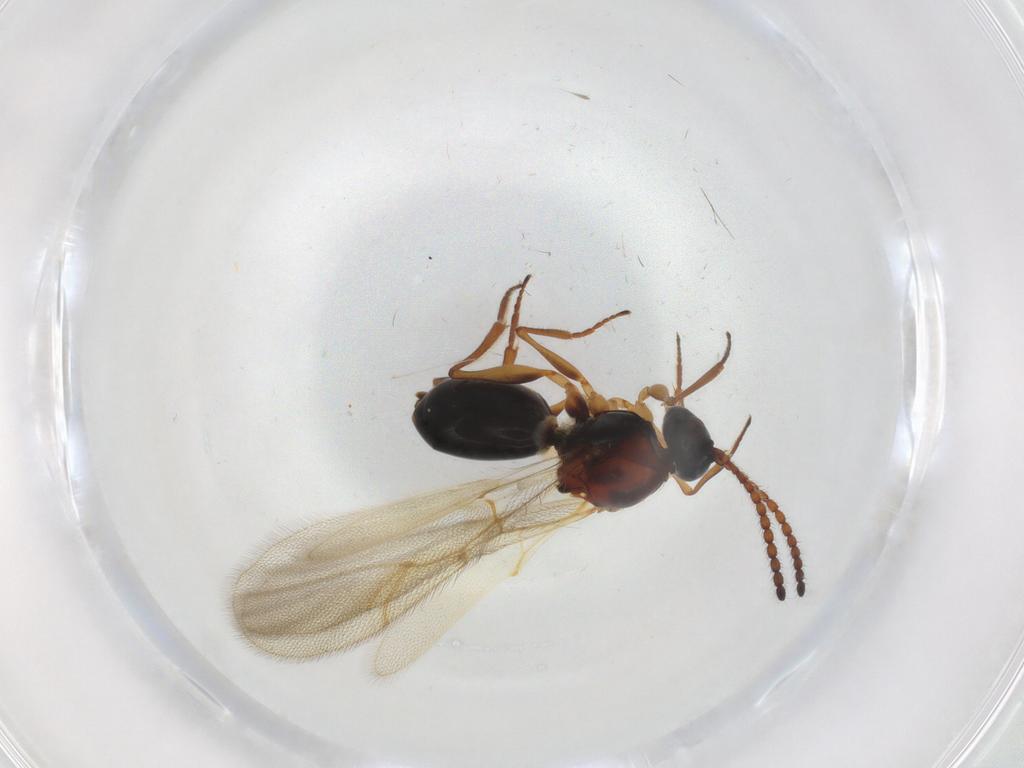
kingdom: Animalia
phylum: Arthropoda
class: Insecta
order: Hymenoptera
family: Figitidae
